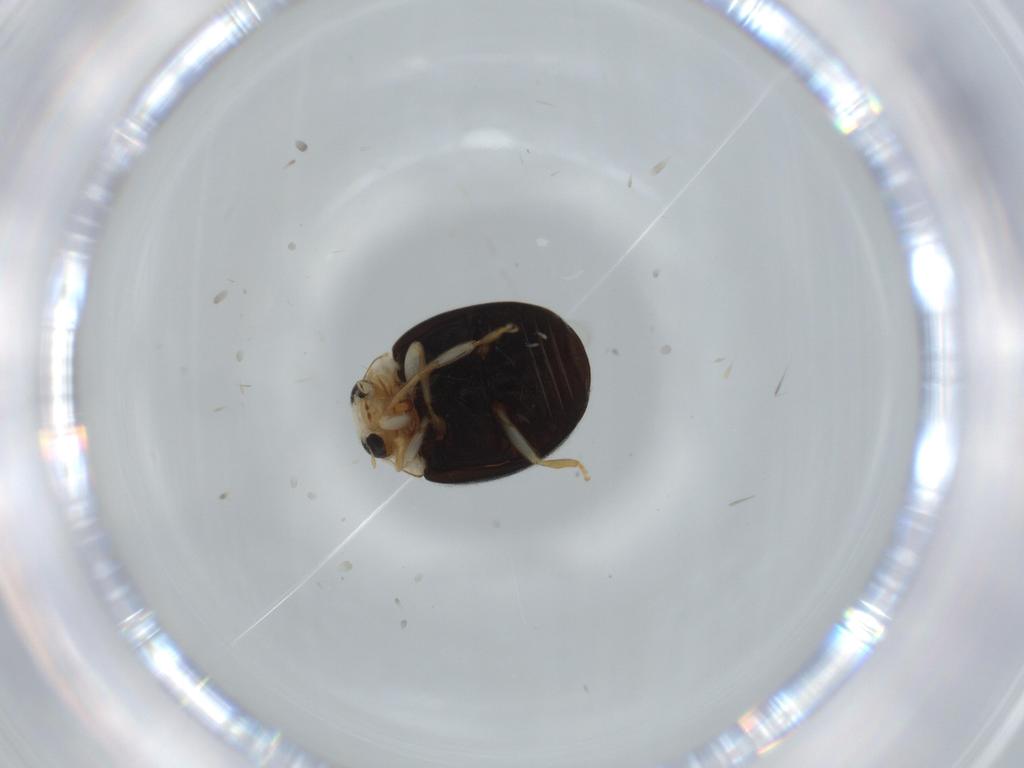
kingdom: Animalia
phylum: Arthropoda
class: Insecta
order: Coleoptera
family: Coccinellidae
